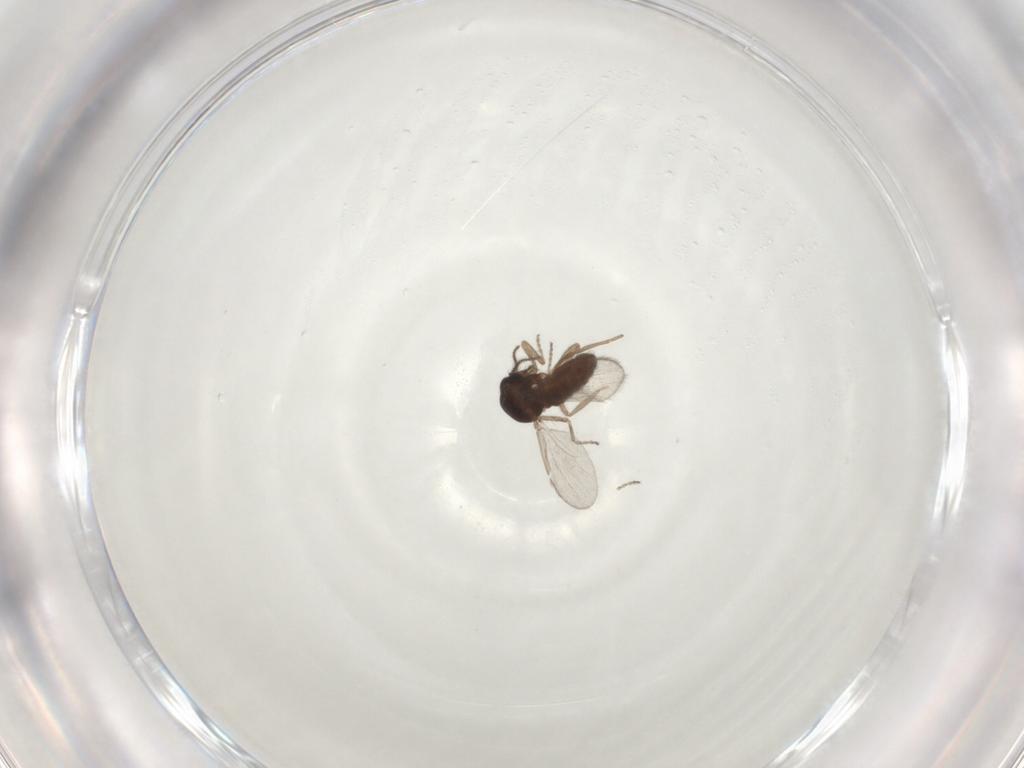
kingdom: Animalia
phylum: Arthropoda
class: Insecta
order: Diptera
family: Ceratopogonidae
